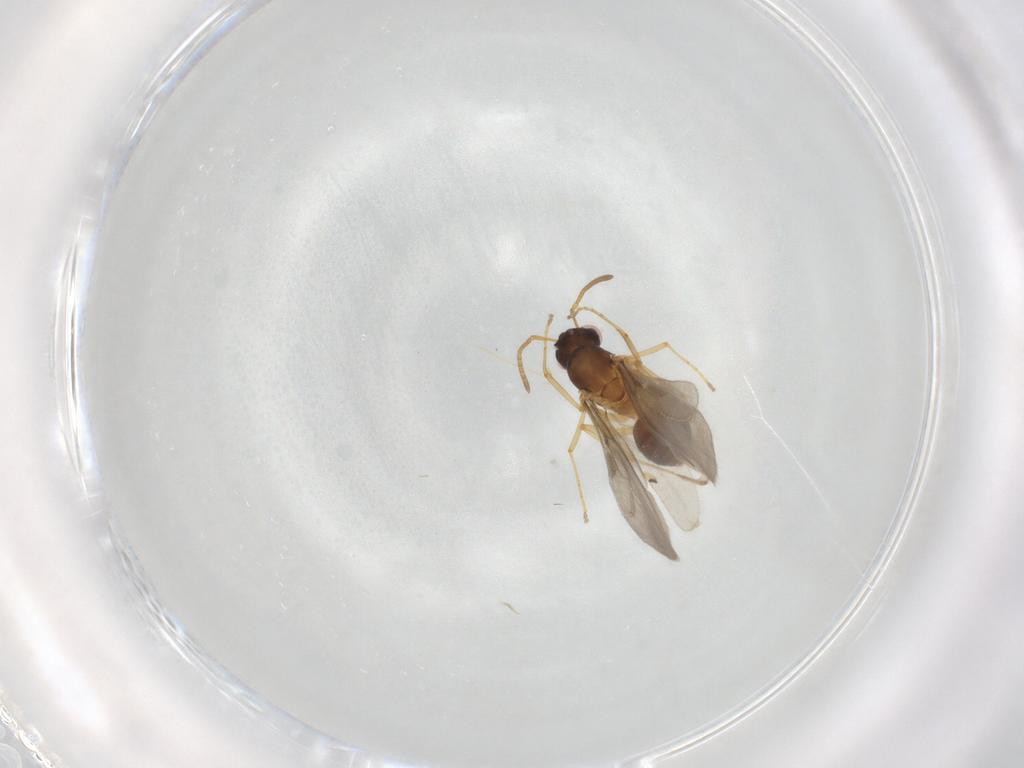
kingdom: Animalia
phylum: Arthropoda
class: Insecta
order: Hymenoptera
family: Formicidae
